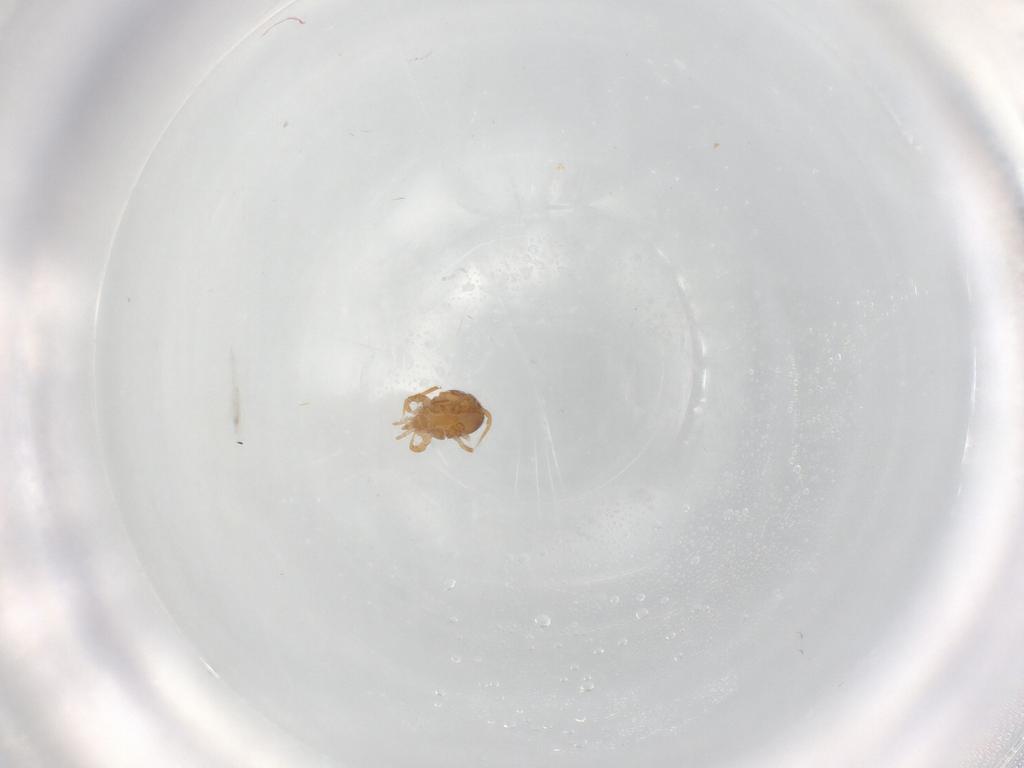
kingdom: Animalia
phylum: Arthropoda
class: Arachnida
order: Mesostigmata
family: Parasitidae
